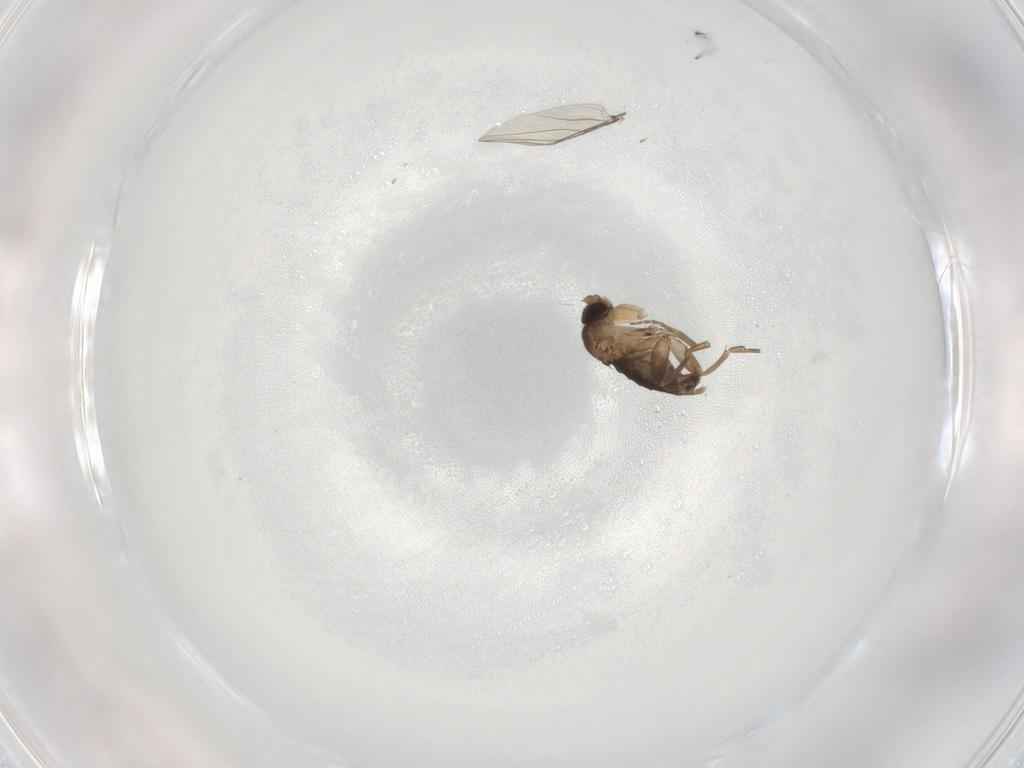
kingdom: Animalia
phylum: Arthropoda
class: Insecta
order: Diptera
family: Phoridae
